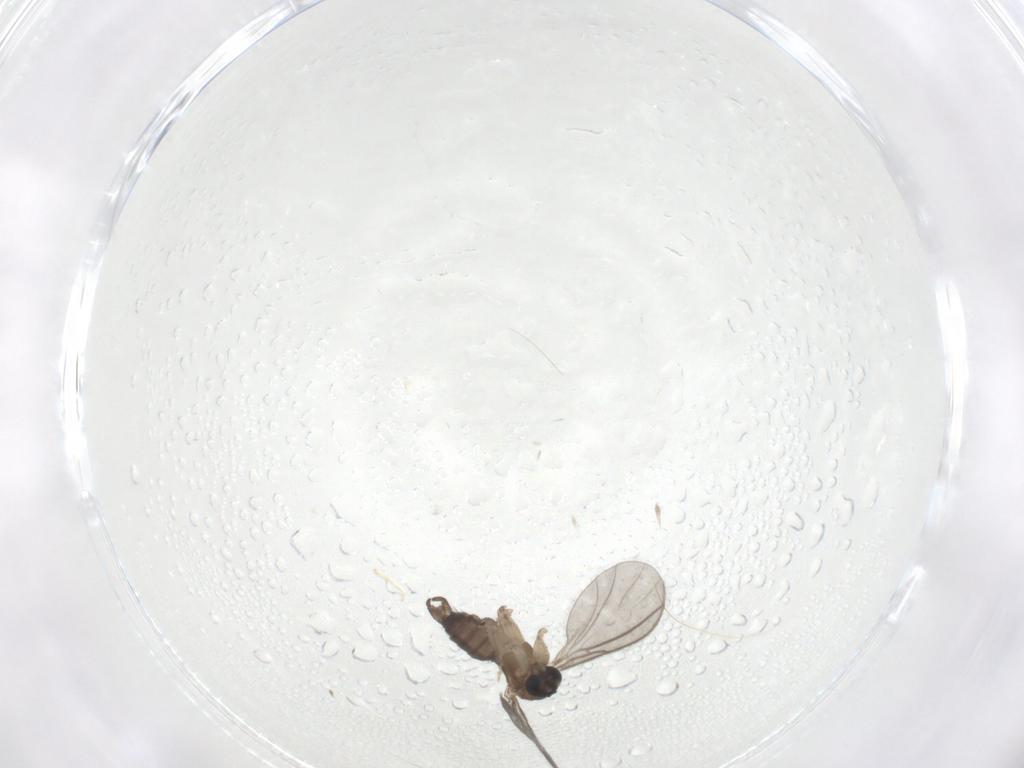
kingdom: Animalia
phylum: Arthropoda
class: Insecta
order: Diptera
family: Sciaridae
